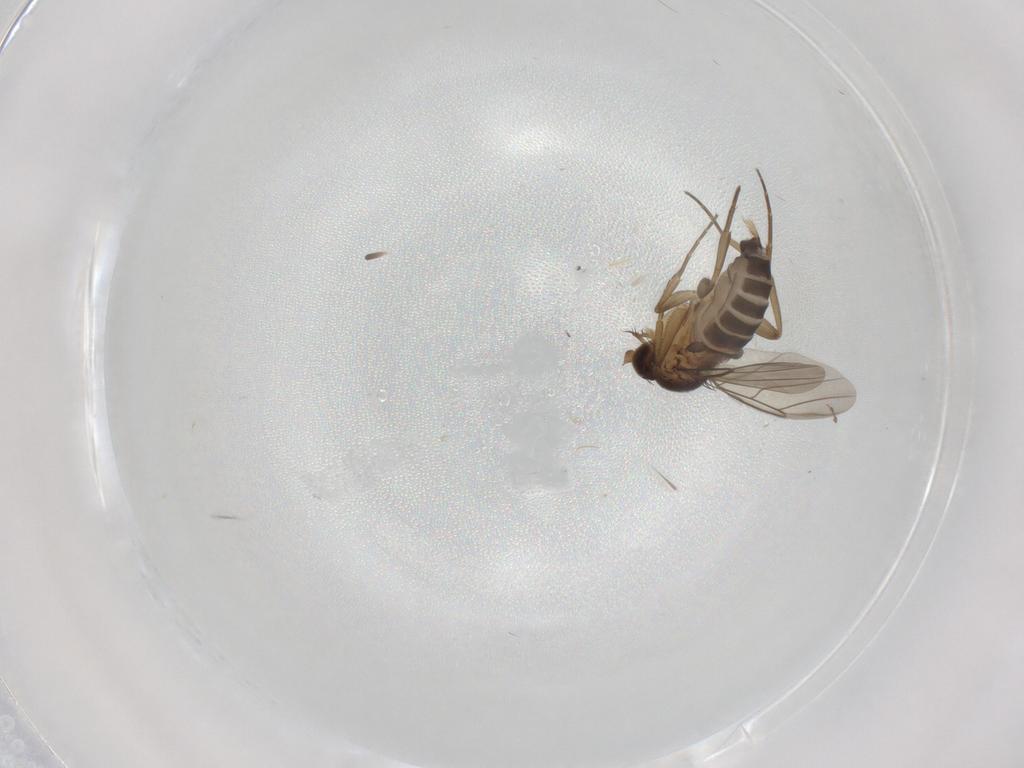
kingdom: Animalia
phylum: Arthropoda
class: Insecta
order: Diptera
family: Phoridae
